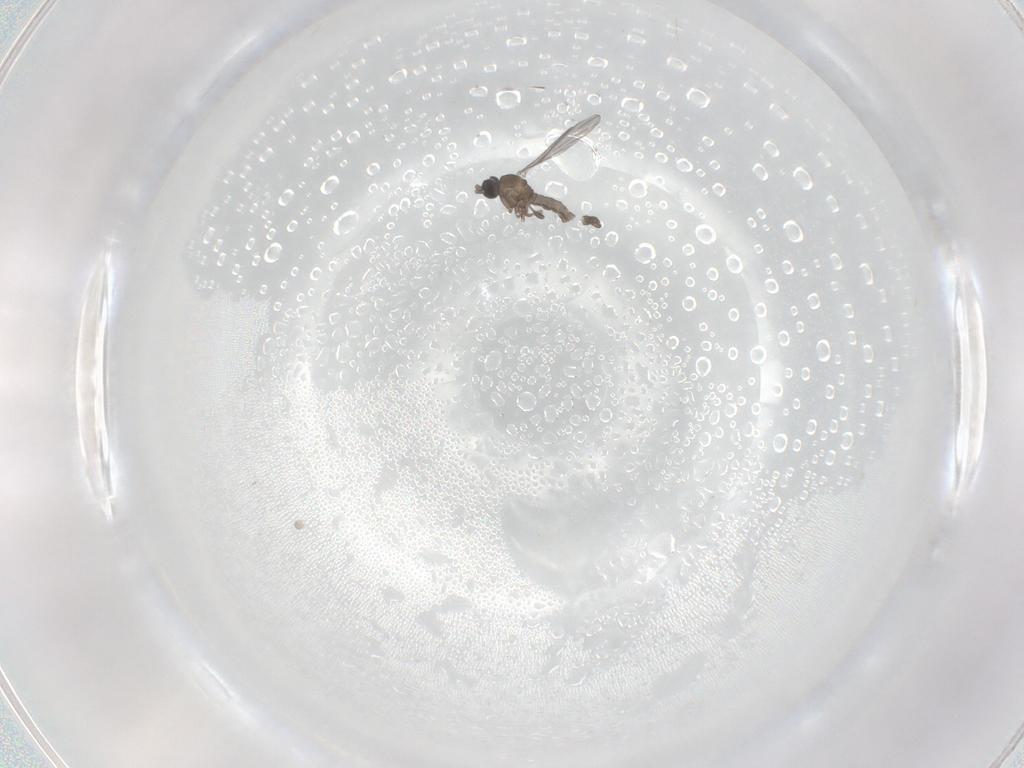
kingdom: Animalia
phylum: Arthropoda
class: Insecta
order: Diptera
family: Sciaridae
